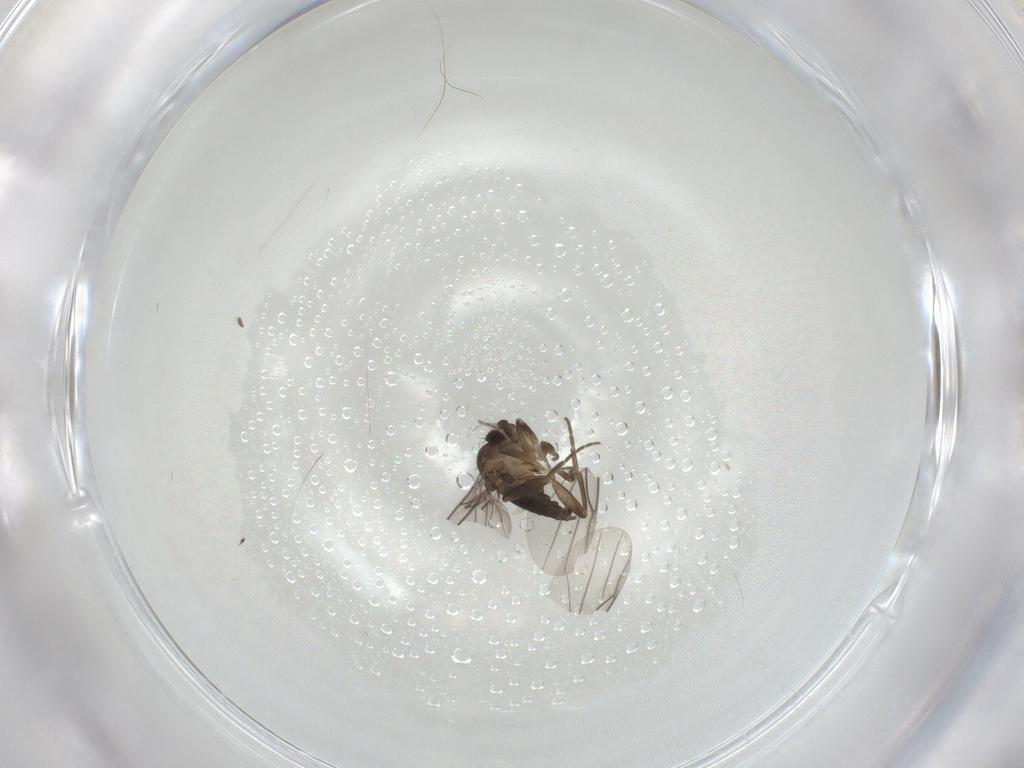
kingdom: Animalia
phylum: Arthropoda
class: Insecta
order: Diptera
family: Phoridae
